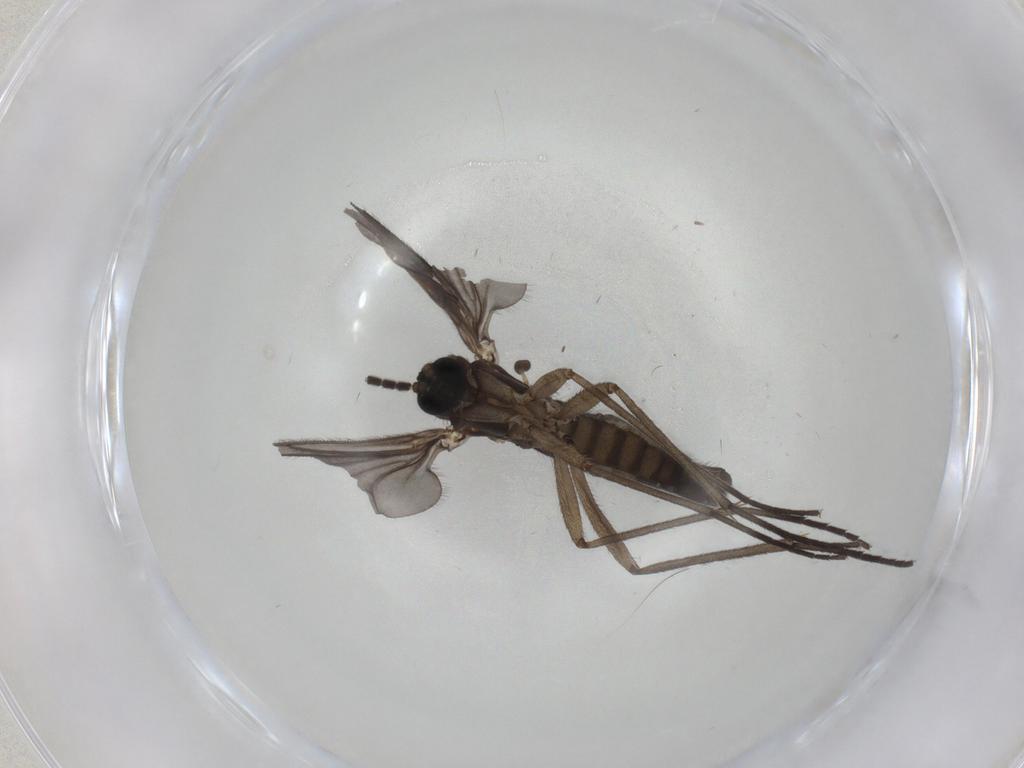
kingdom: Animalia
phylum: Arthropoda
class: Insecta
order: Diptera
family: Sciaridae
